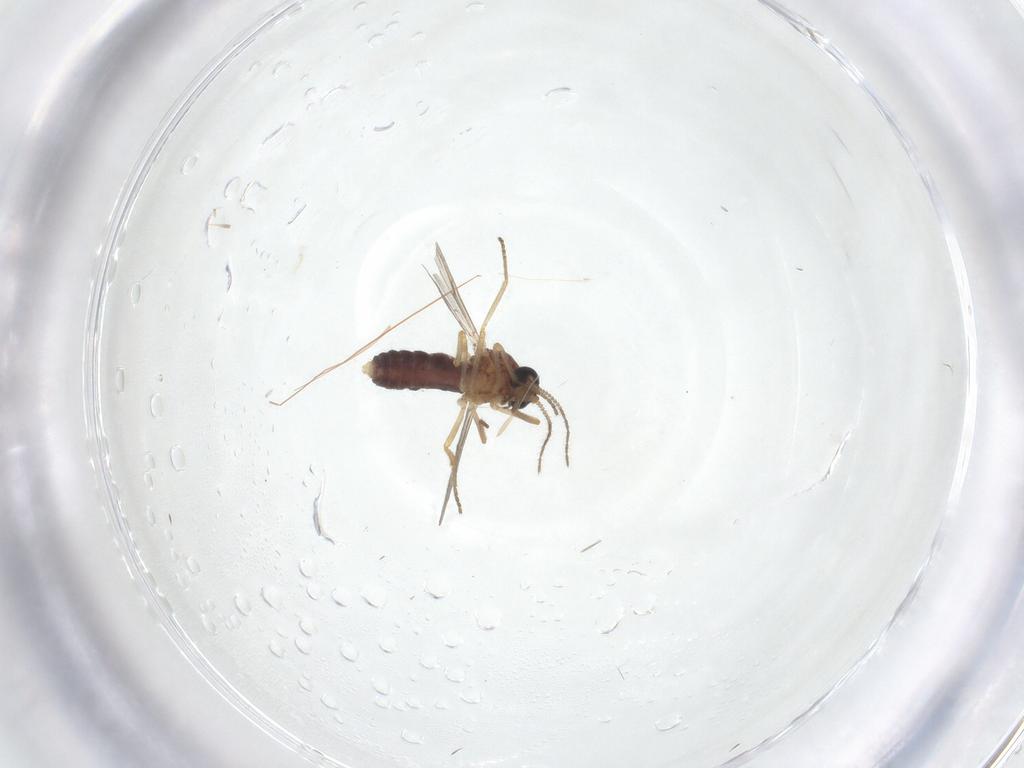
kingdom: Animalia
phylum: Arthropoda
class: Insecta
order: Diptera
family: Ceratopogonidae
